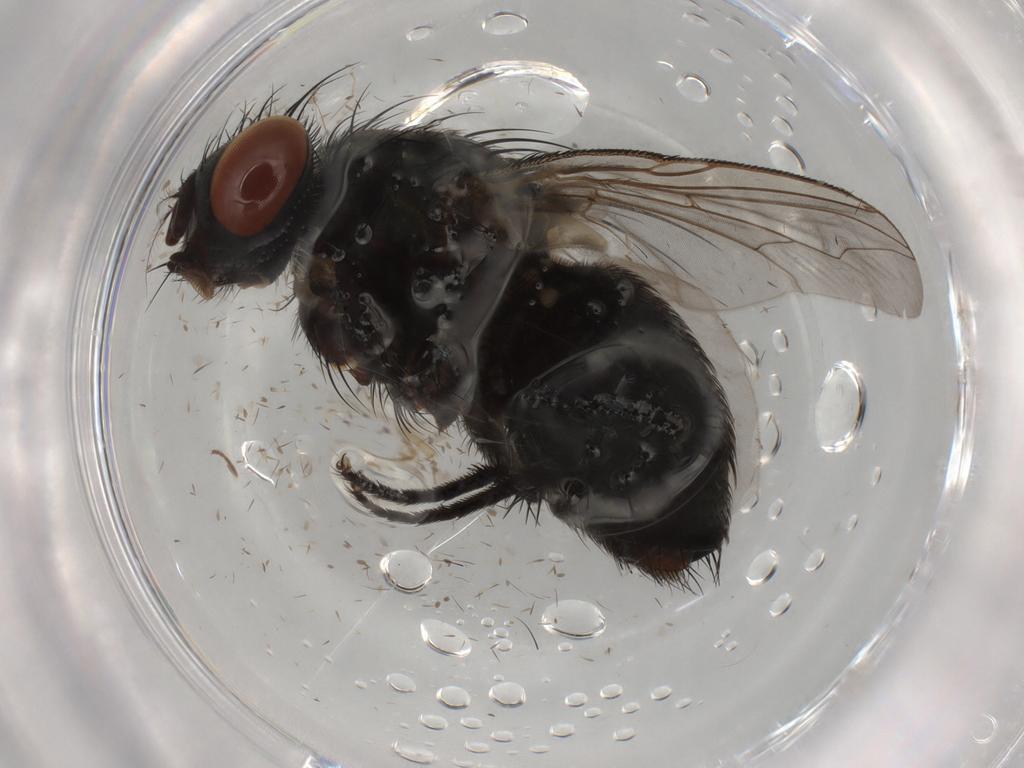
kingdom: Animalia
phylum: Arthropoda
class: Insecta
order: Diptera
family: Sarcophagidae
